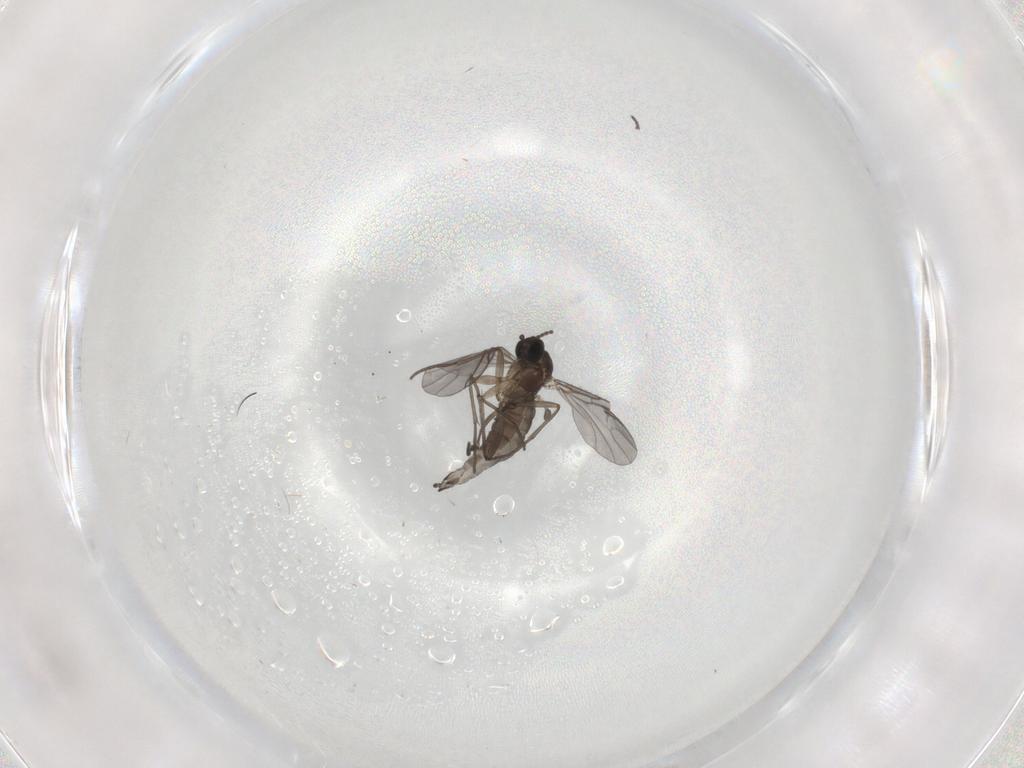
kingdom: Animalia
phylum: Arthropoda
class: Insecta
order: Diptera
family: Sciaridae
